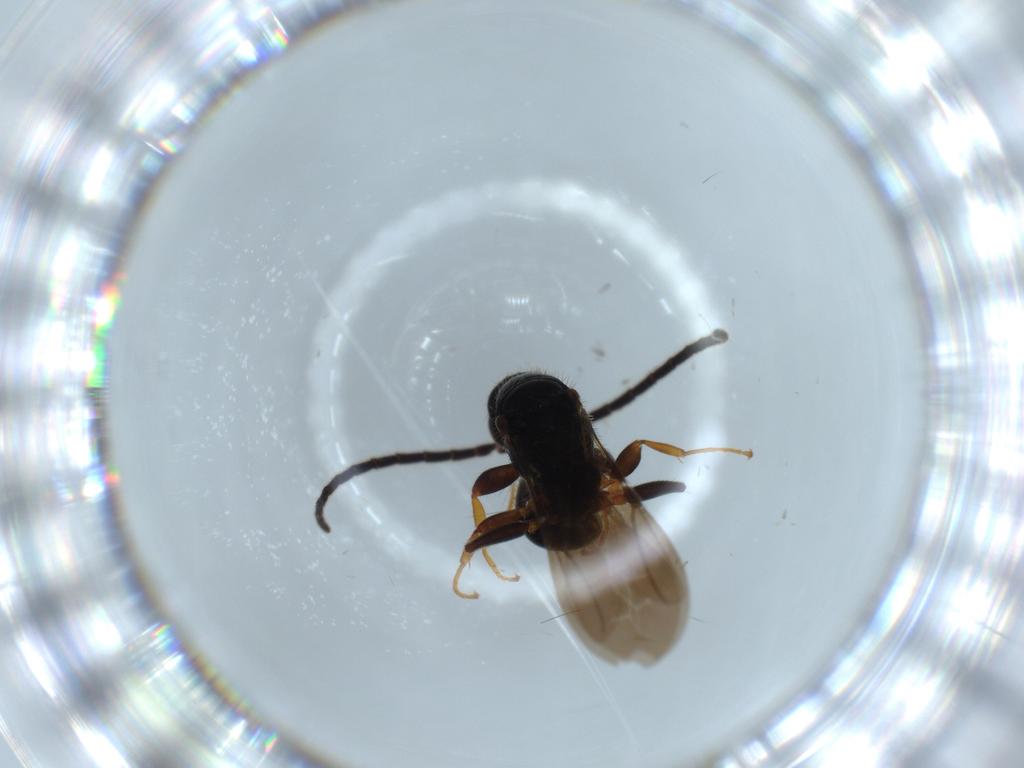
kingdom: Animalia
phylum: Arthropoda
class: Insecta
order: Hymenoptera
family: Bethylidae
